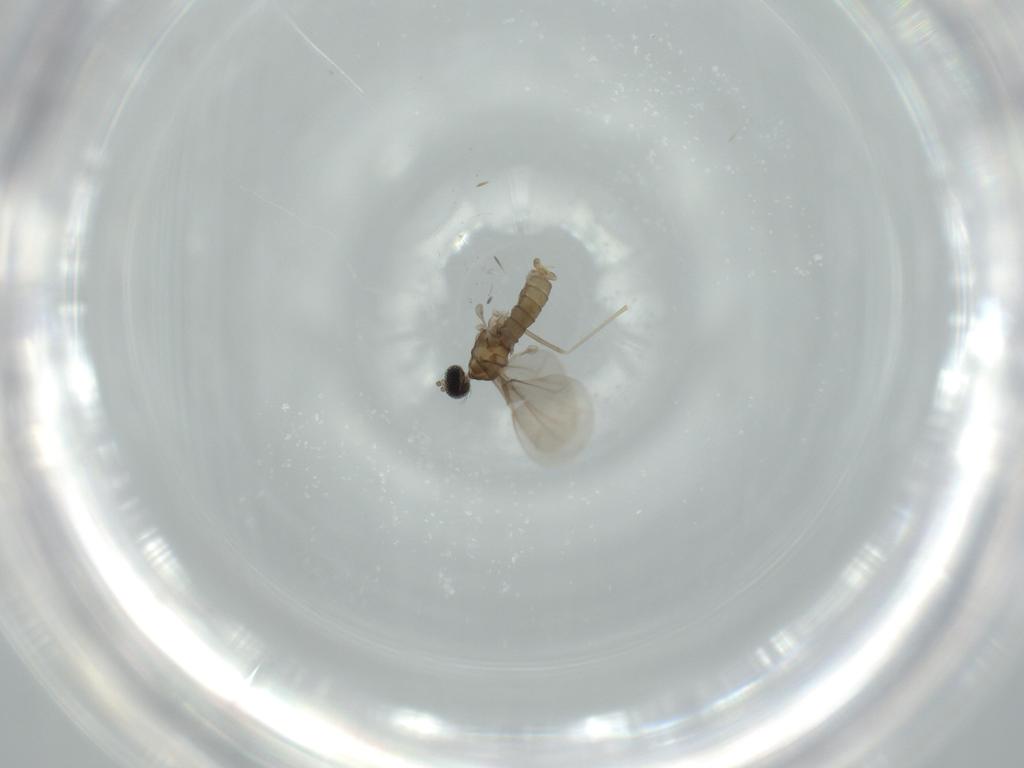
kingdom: Animalia
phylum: Arthropoda
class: Insecta
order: Diptera
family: Cecidomyiidae
